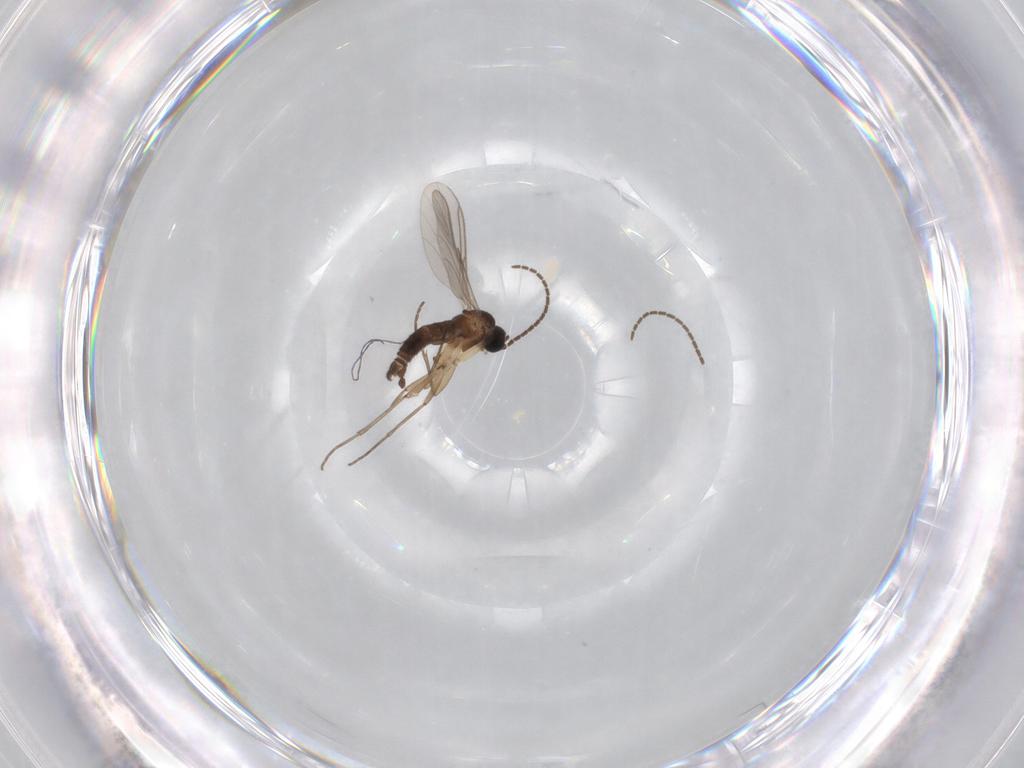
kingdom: Animalia
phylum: Arthropoda
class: Insecta
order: Diptera
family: Sciaridae
